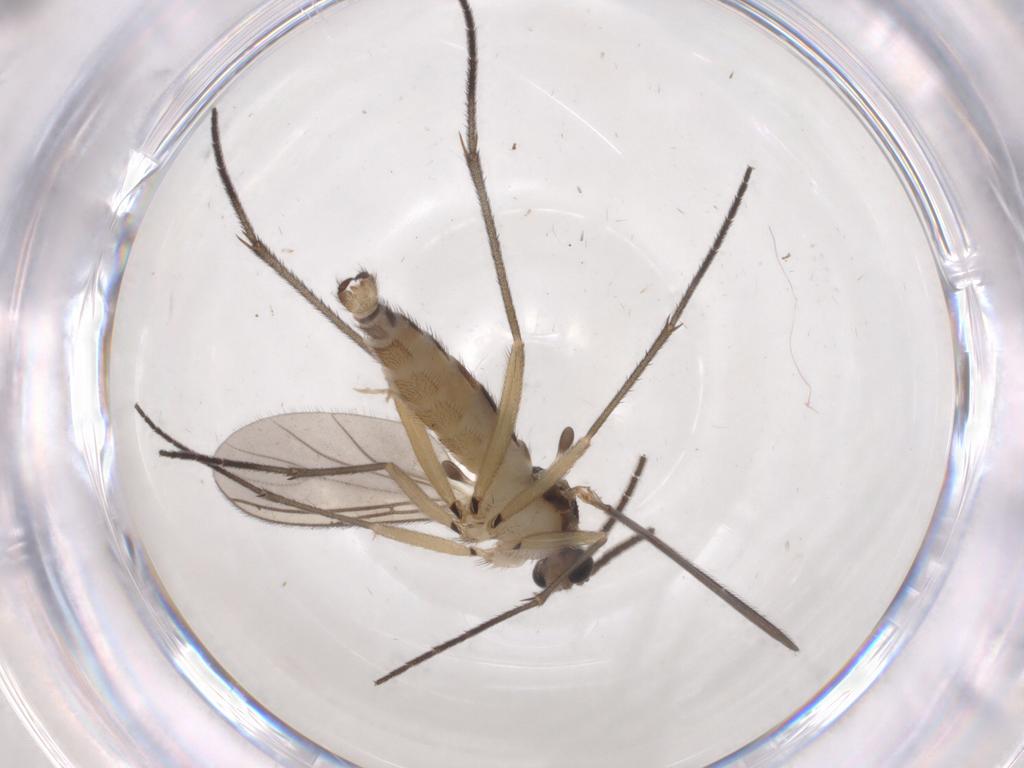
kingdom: Animalia
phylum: Arthropoda
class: Insecta
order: Diptera
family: Sciaridae
